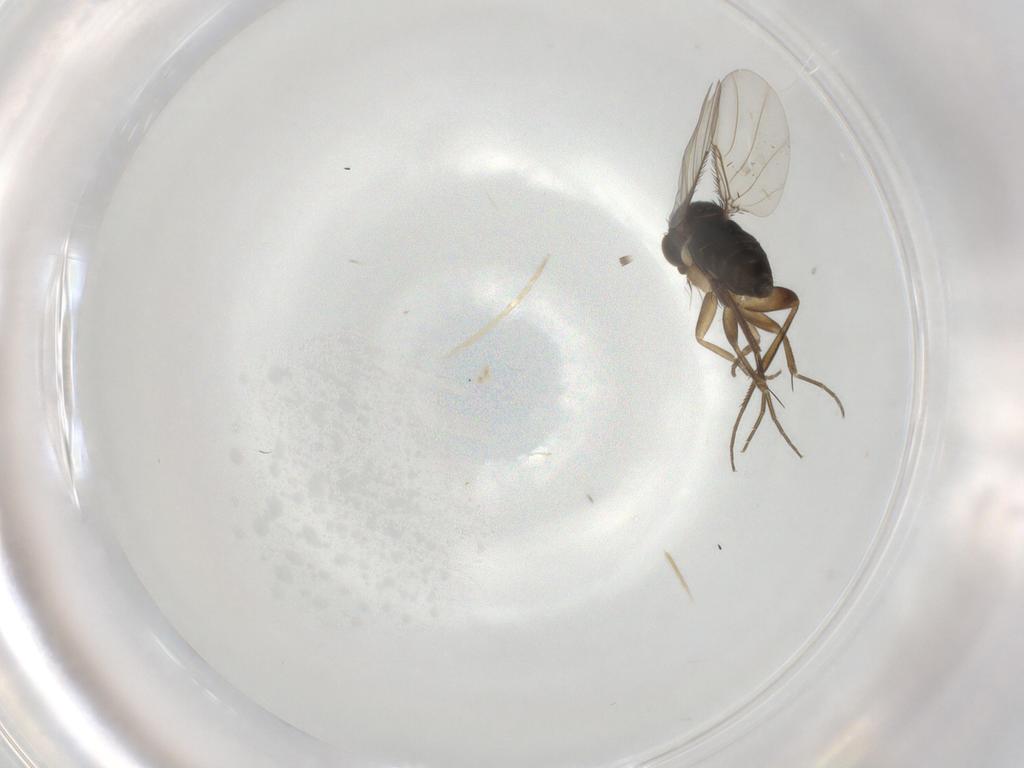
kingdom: Animalia
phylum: Arthropoda
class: Insecta
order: Diptera
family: Phoridae
